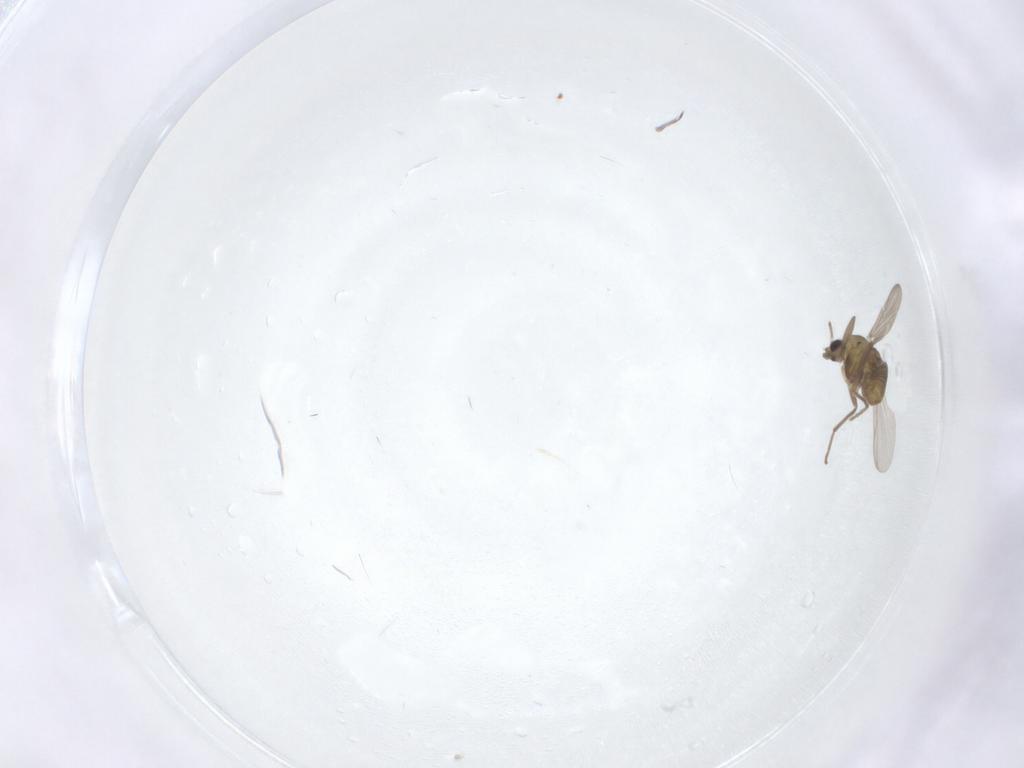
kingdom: Animalia
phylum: Arthropoda
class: Insecta
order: Diptera
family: Chironomidae
